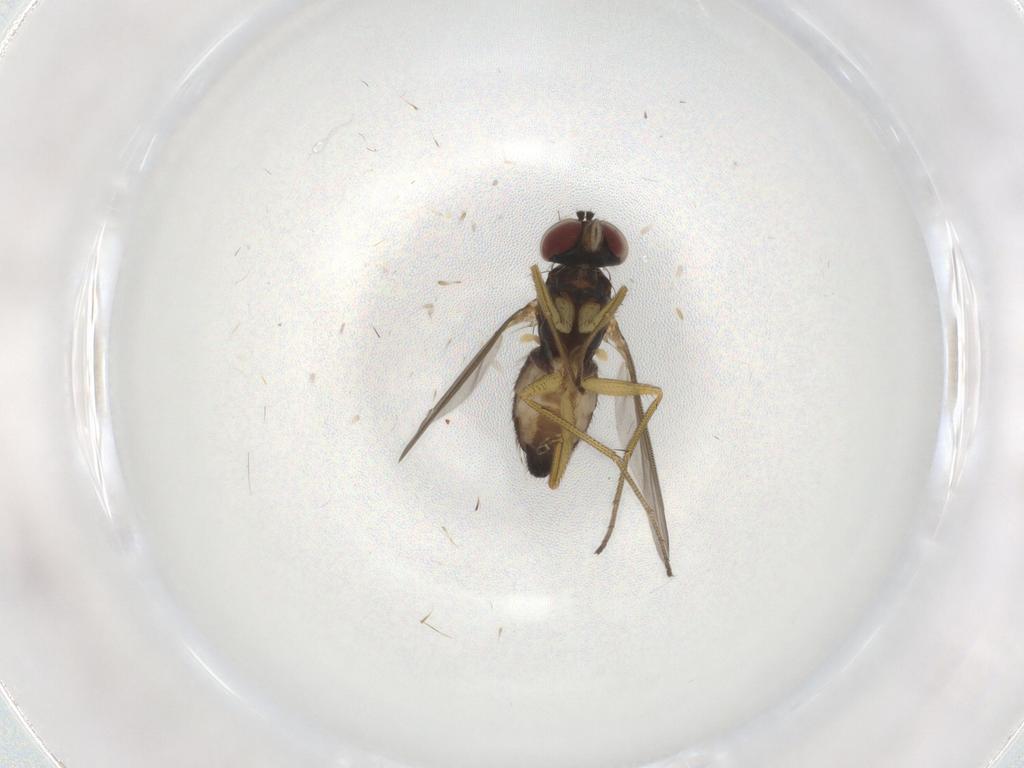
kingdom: Animalia
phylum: Arthropoda
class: Insecta
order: Diptera
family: Dolichopodidae
